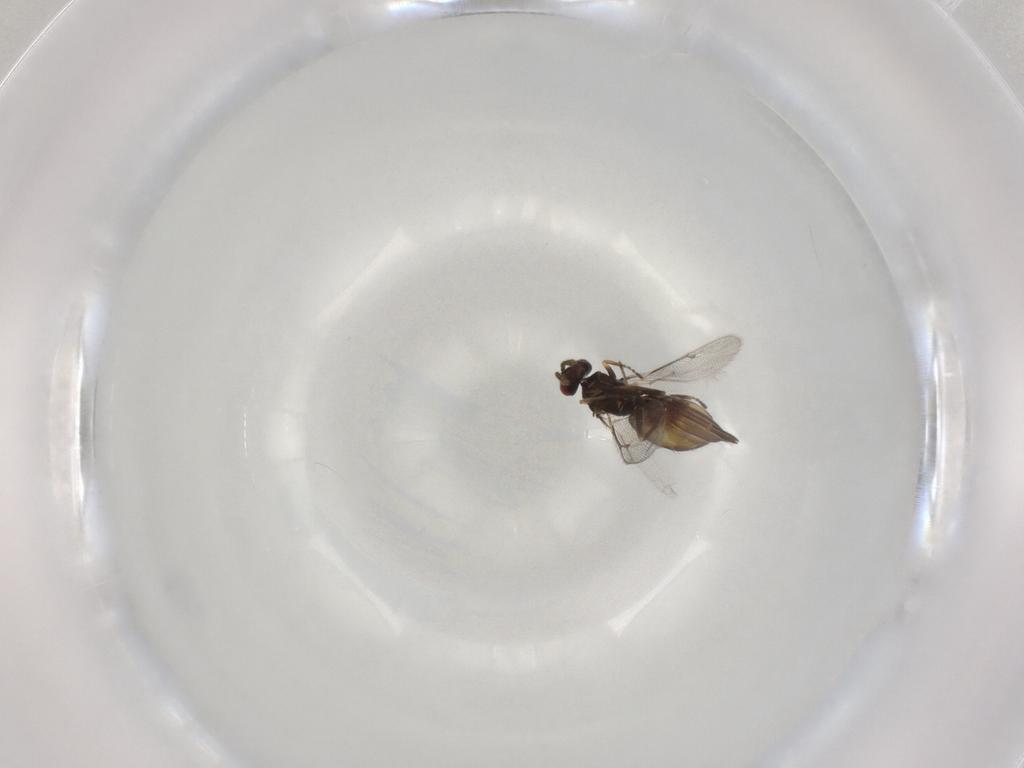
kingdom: Animalia
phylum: Arthropoda
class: Insecta
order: Hymenoptera
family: Eulophidae
